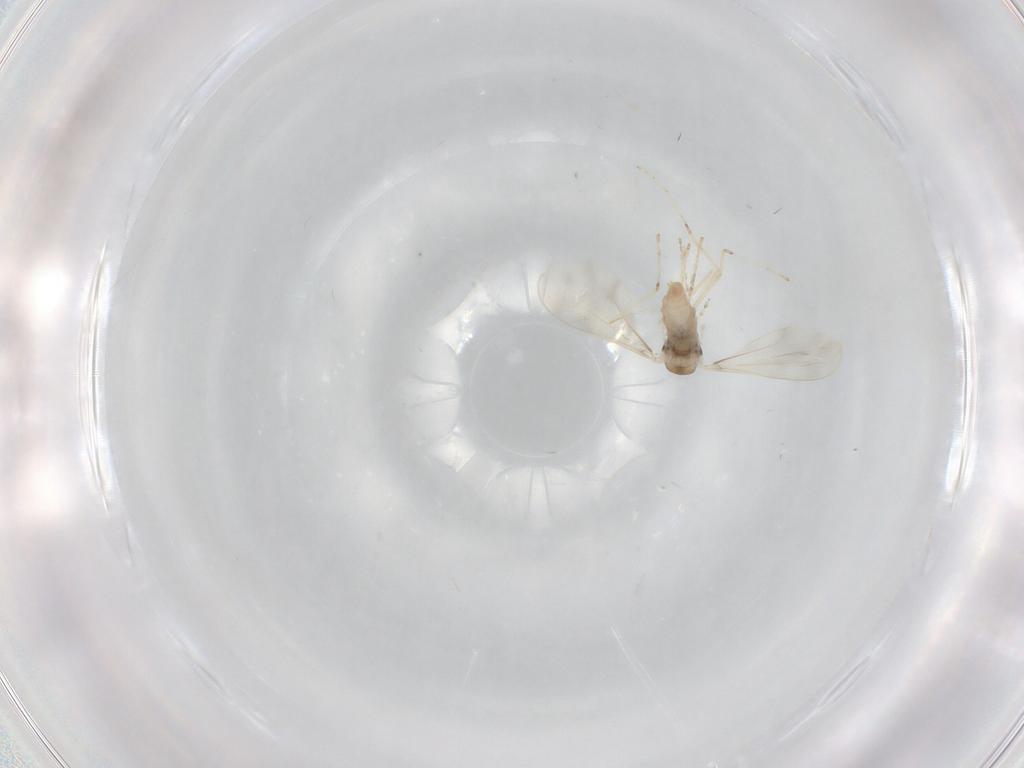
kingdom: Animalia
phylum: Arthropoda
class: Insecta
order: Diptera
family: Cecidomyiidae
